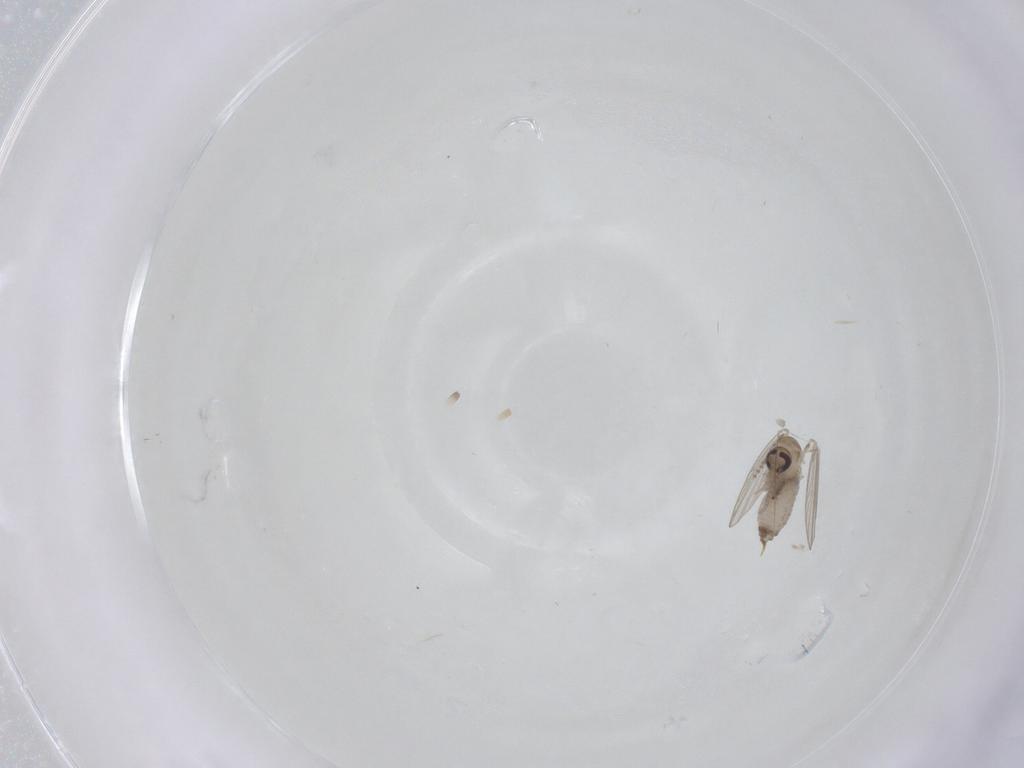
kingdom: Animalia
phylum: Arthropoda
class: Insecta
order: Diptera
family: Psychodidae
